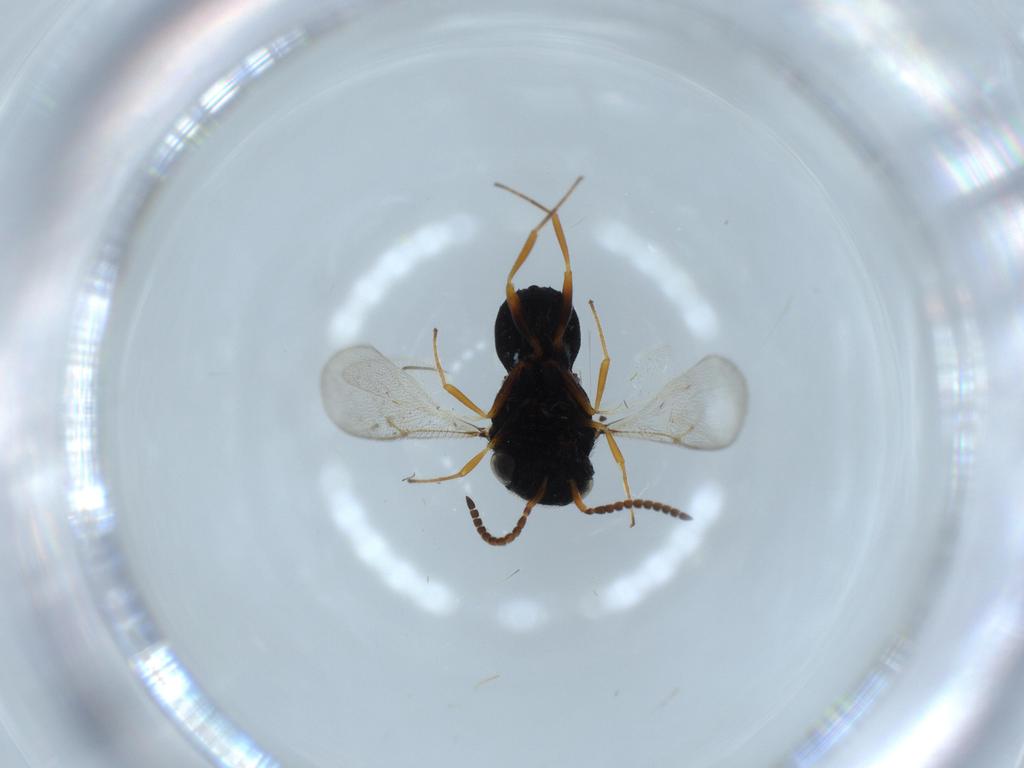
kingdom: Animalia
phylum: Arthropoda
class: Insecta
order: Hymenoptera
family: Scelionidae
